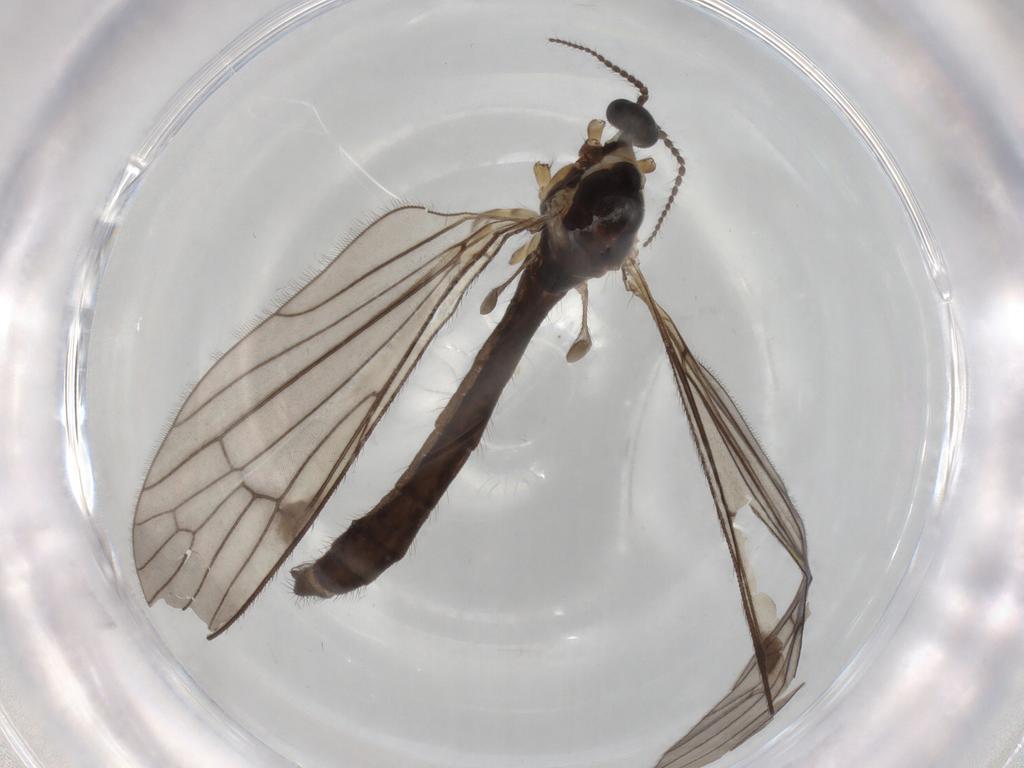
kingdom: Animalia
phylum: Arthropoda
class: Insecta
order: Diptera
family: Limoniidae
